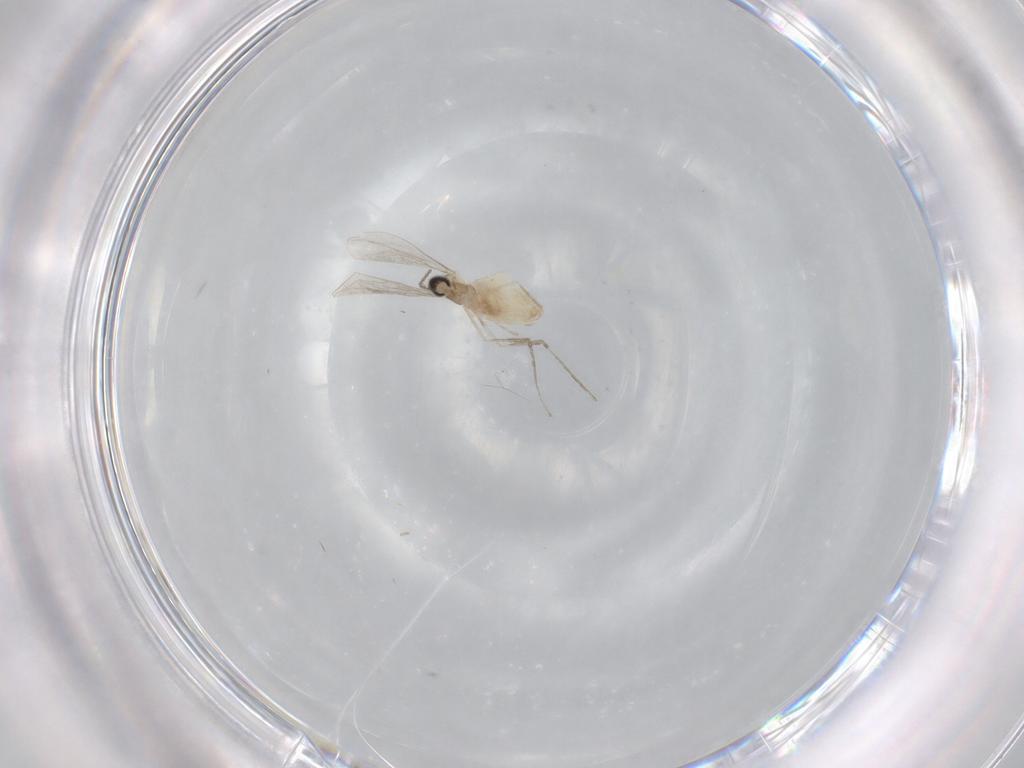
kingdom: Animalia
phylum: Arthropoda
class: Insecta
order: Diptera
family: Cecidomyiidae
